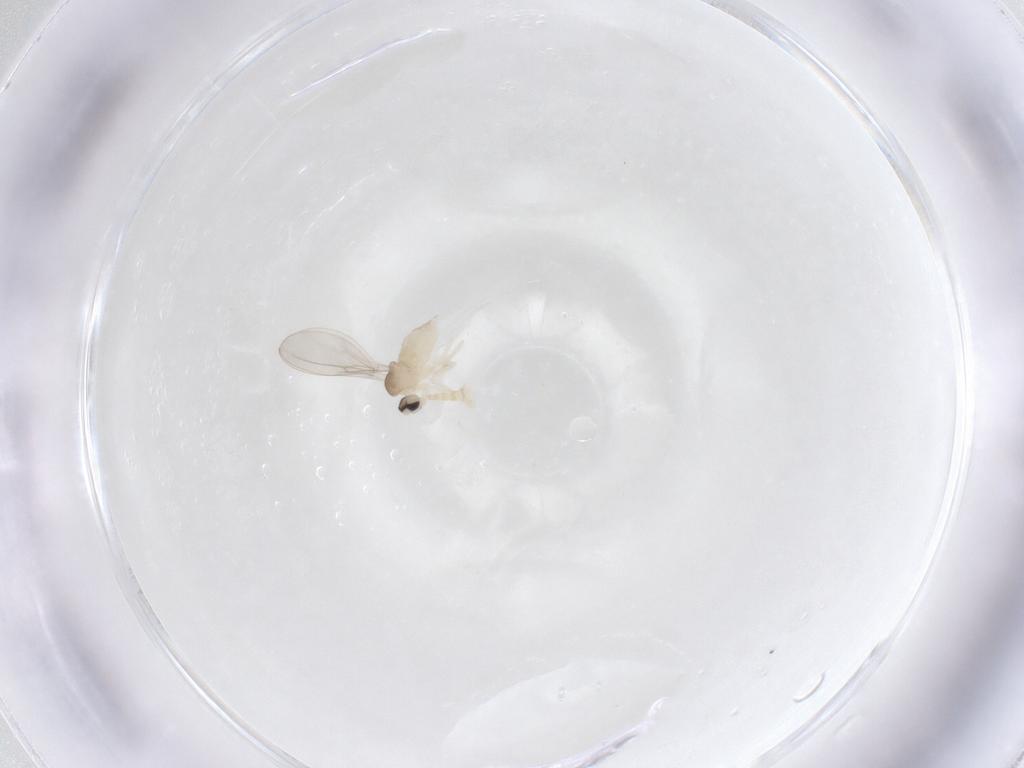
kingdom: Animalia
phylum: Arthropoda
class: Insecta
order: Diptera
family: Cecidomyiidae
